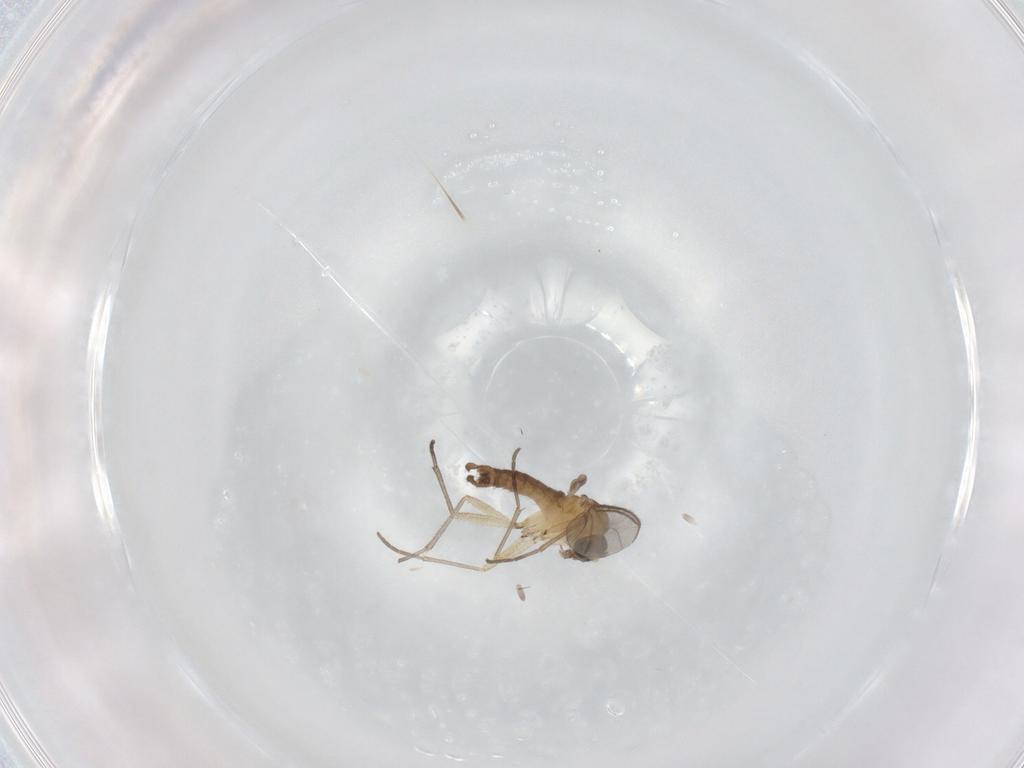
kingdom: Animalia
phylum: Arthropoda
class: Insecta
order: Diptera
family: Sciaridae
